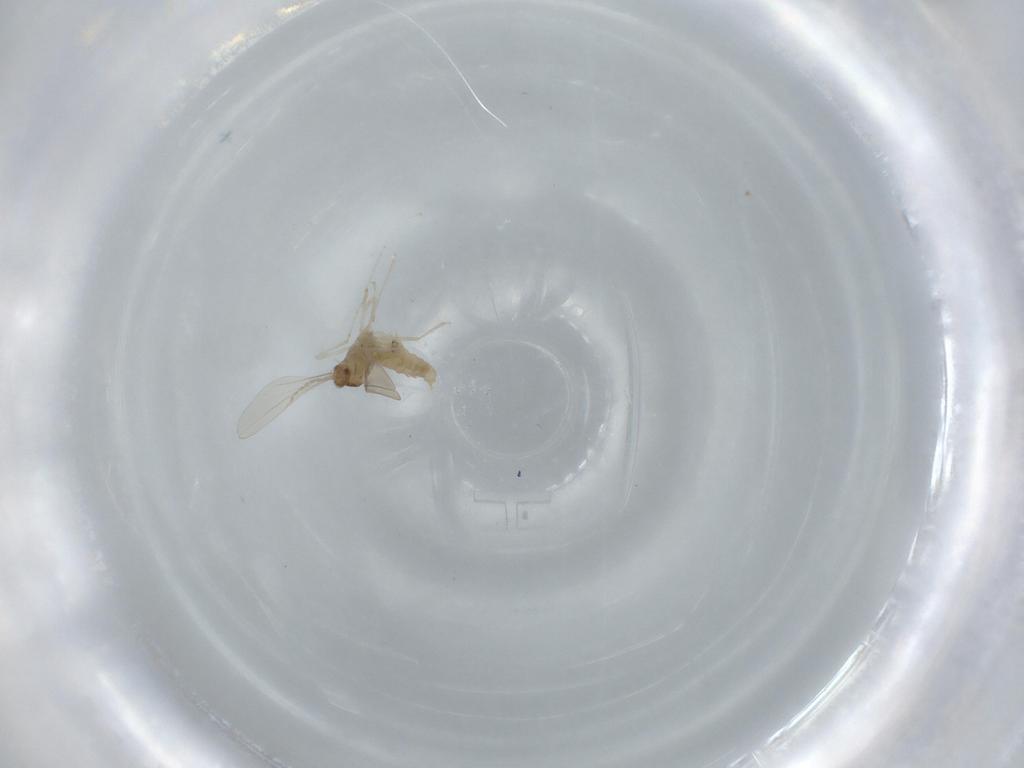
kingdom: Animalia
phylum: Arthropoda
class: Insecta
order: Diptera
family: Cecidomyiidae
